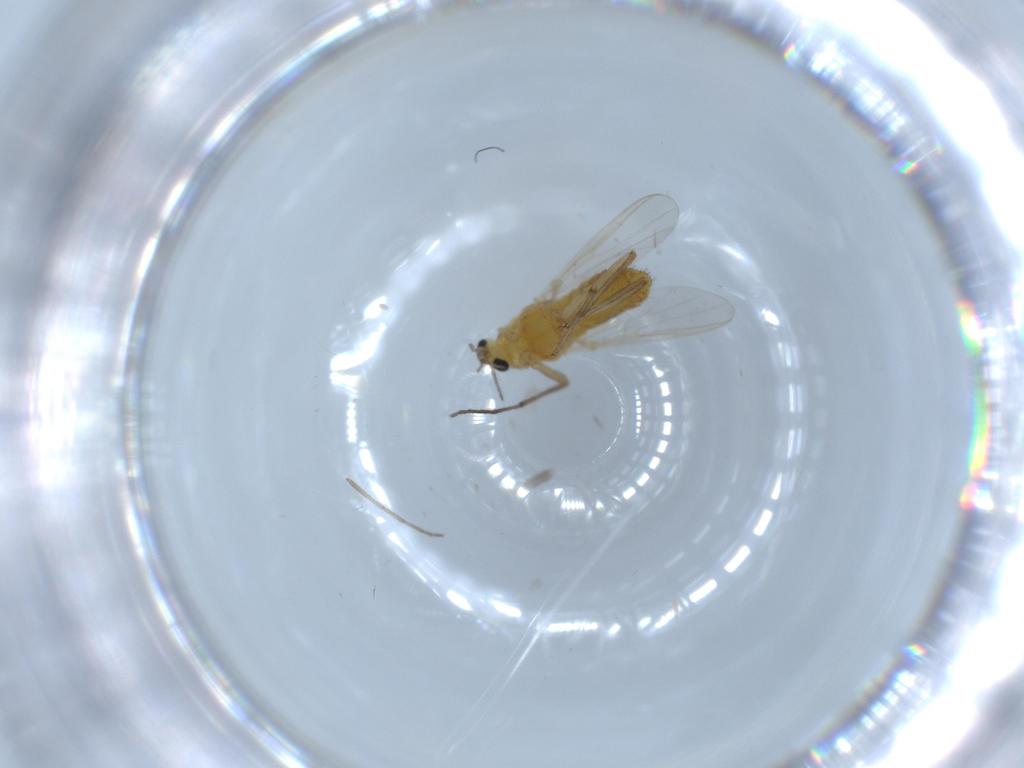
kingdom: Animalia
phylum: Arthropoda
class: Insecta
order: Diptera
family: Chironomidae
